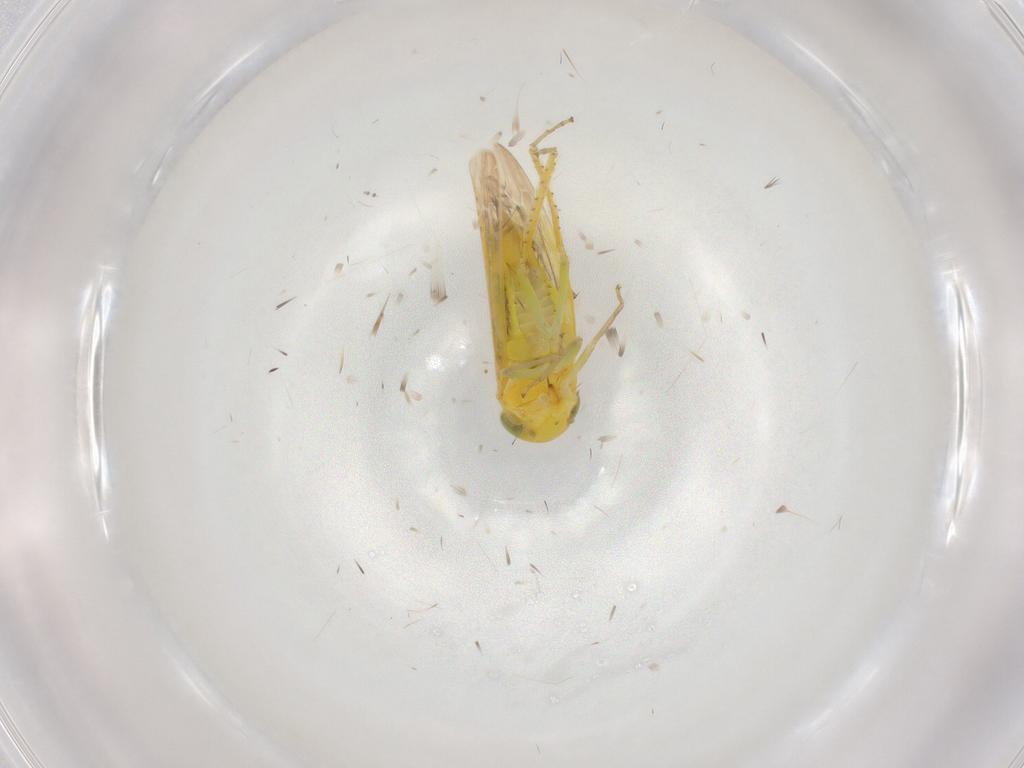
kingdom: Animalia
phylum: Arthropoda
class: Insecta
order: Hemiptera
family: Cicadellidae
